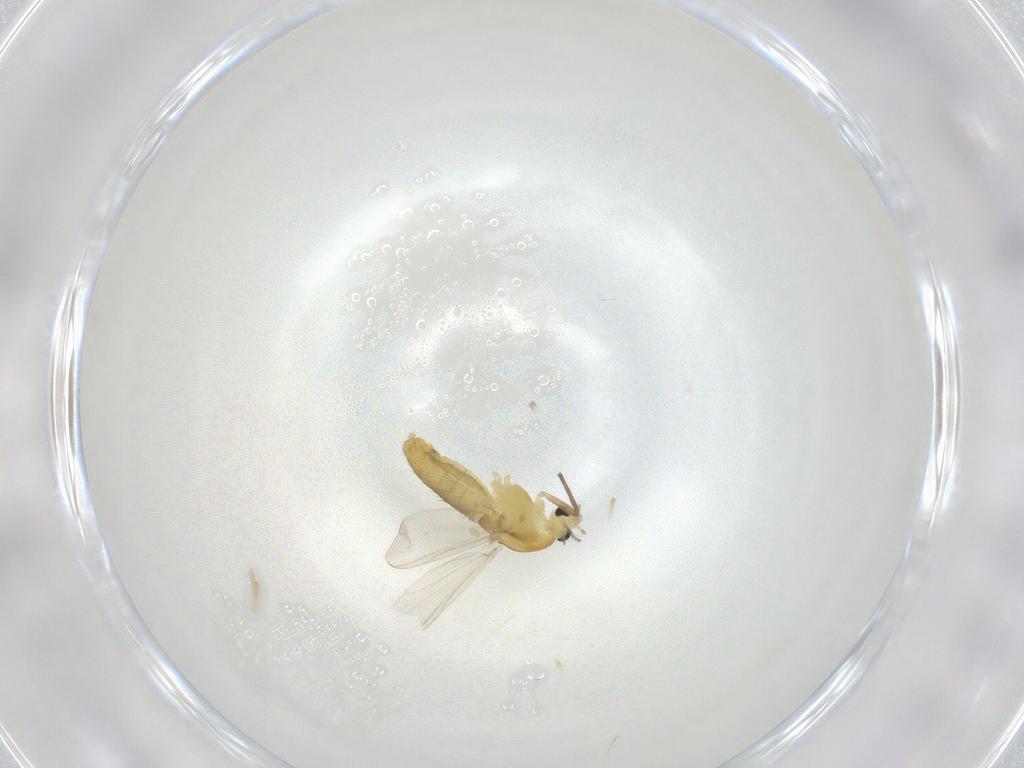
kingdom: Animalia
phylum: Arthropoda
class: Insecta
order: Diptera
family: Chironomidae
